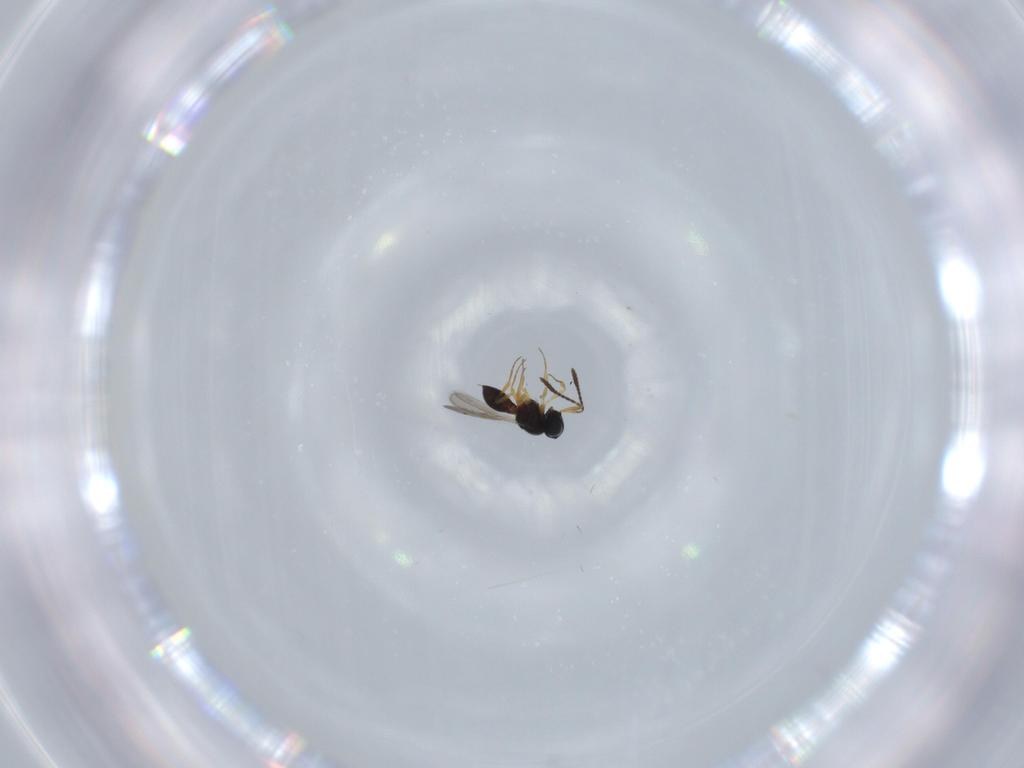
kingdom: Animalia
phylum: Arthropoda
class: Insecta
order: Hymenoptera
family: Scelionidae
